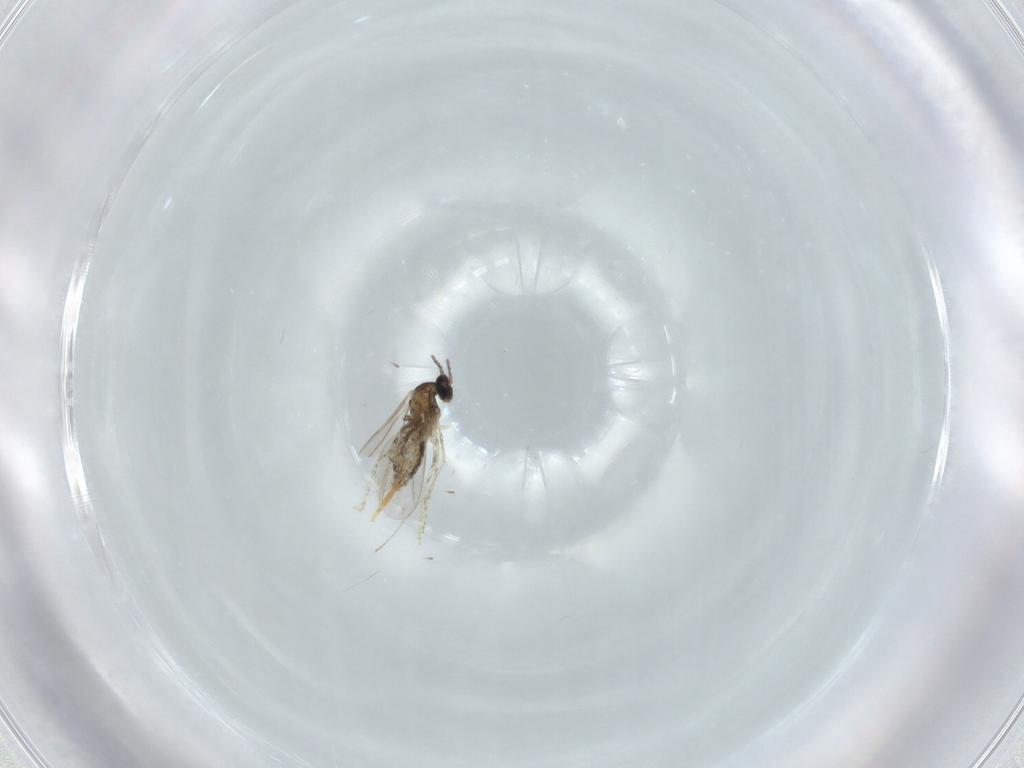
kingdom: Animalia
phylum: Arthropoda
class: Insecta
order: Diptera
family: Cecidomyiidae
